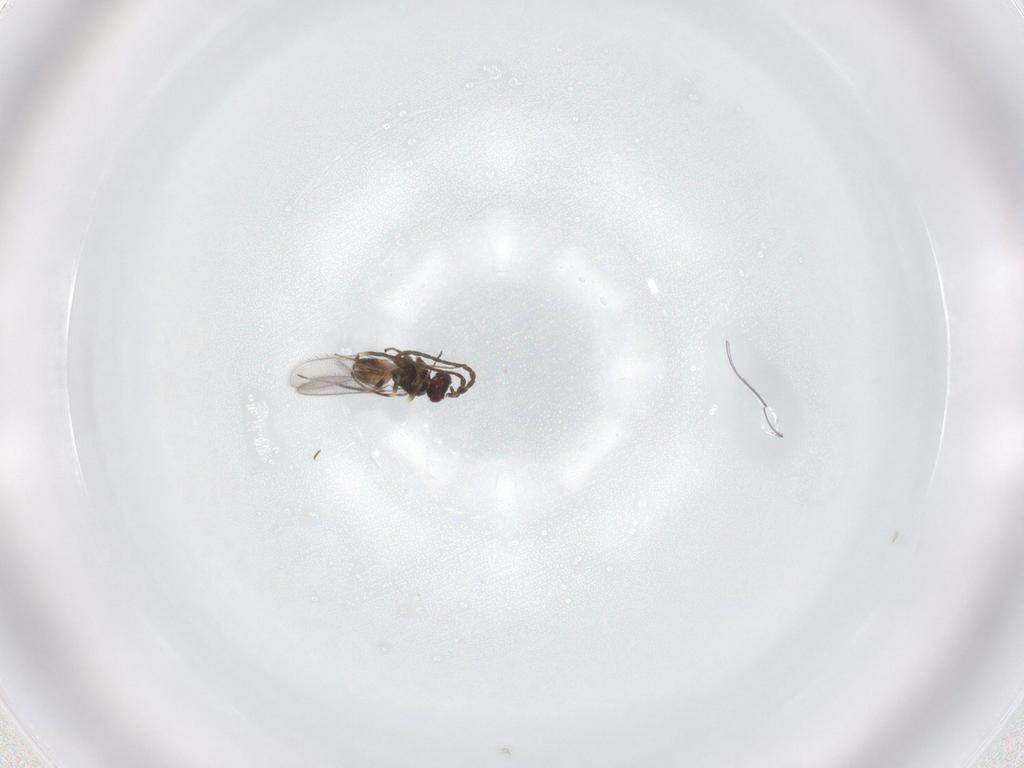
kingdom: Animalia
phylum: Arthropoda
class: Insecta
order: Hymenoptera
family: Mymaridae
